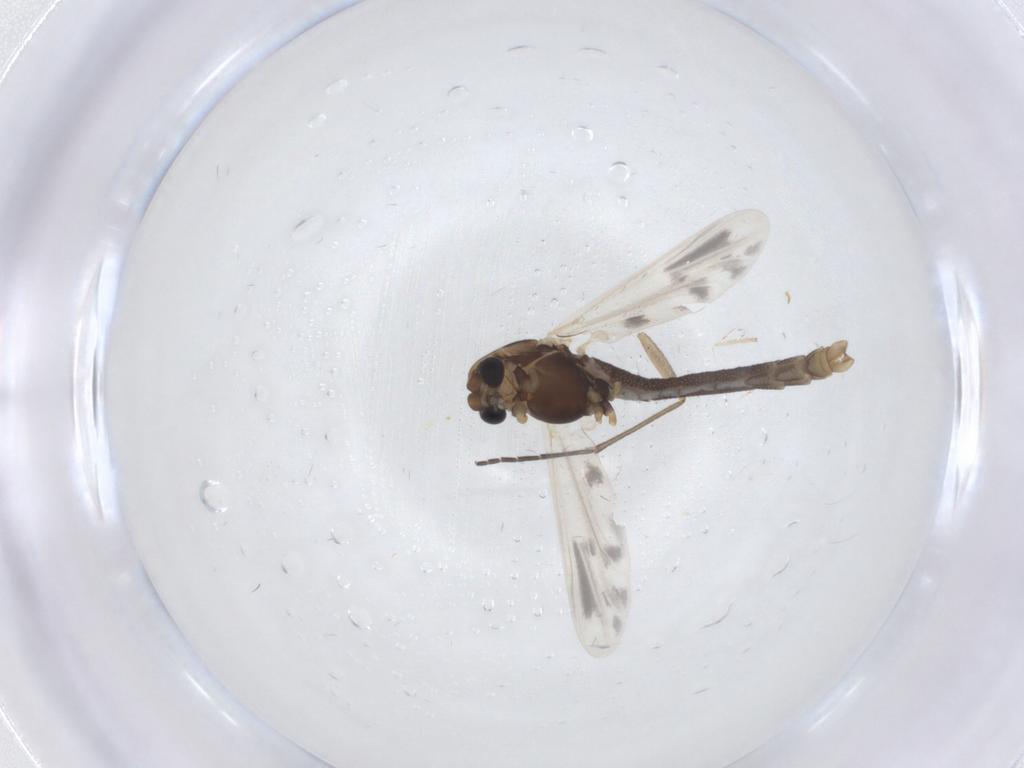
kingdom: Animalia
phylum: Arthropoda
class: Insecta
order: Diptera
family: Chironomidae
